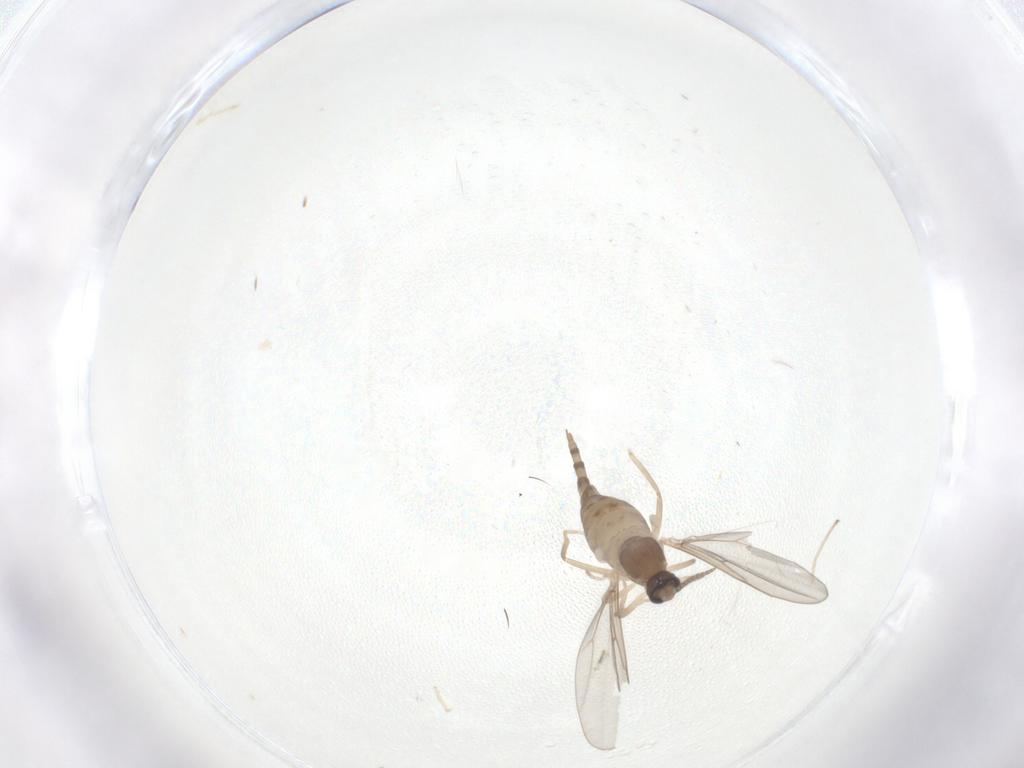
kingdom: Animalia
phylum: Arthropoda
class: Insecta
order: Diptera
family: Cecidomyiidae
